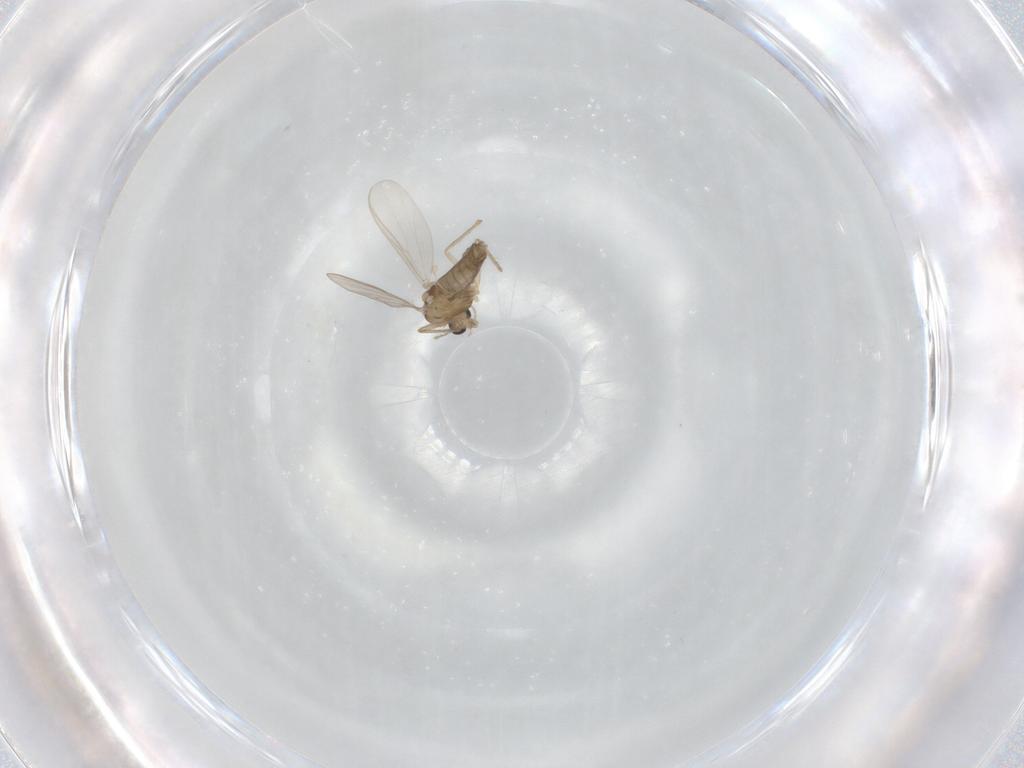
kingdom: Animalia
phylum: Arthropoda
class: Insecta
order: Diptera
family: Chironomidae
